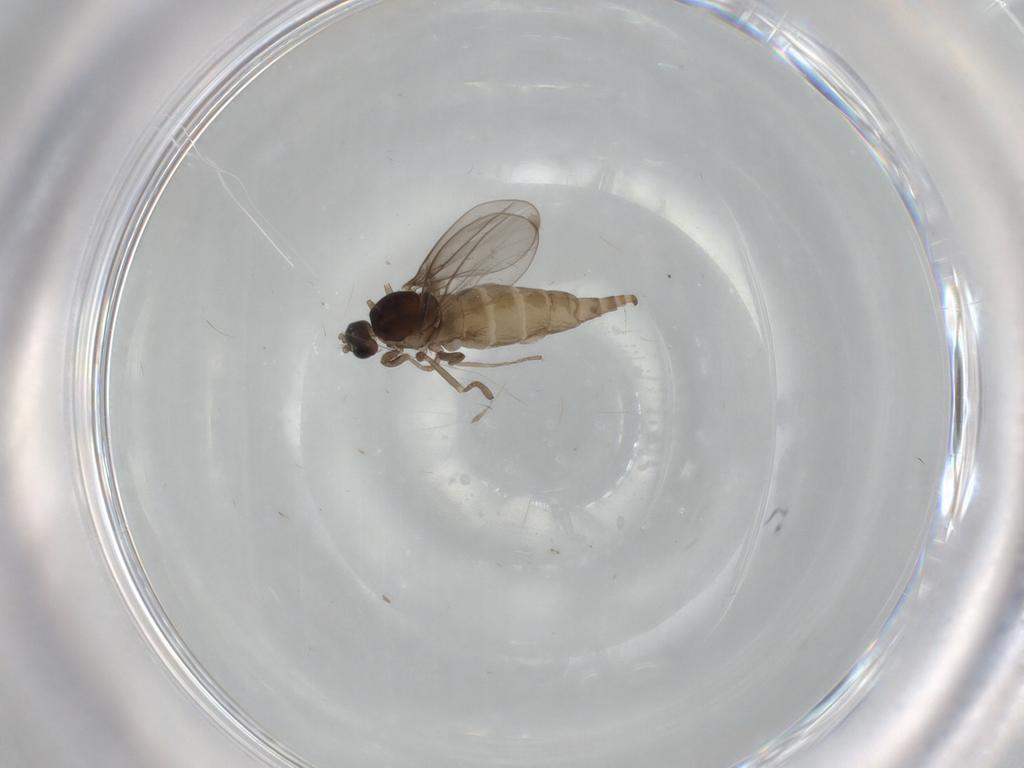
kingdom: Animalia
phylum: Arthropoda
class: Insecta
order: Diptera
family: Cecidomyiidae
